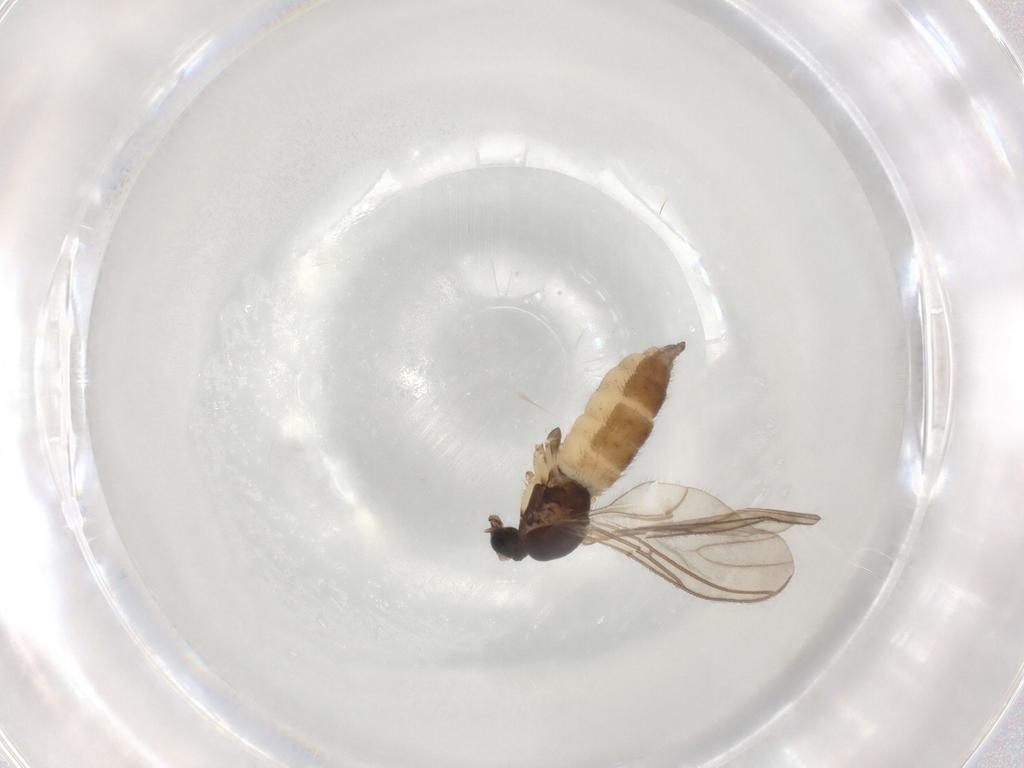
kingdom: Animalia
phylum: Arthropoda
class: Insecta
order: Diptera
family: Sciaridae
